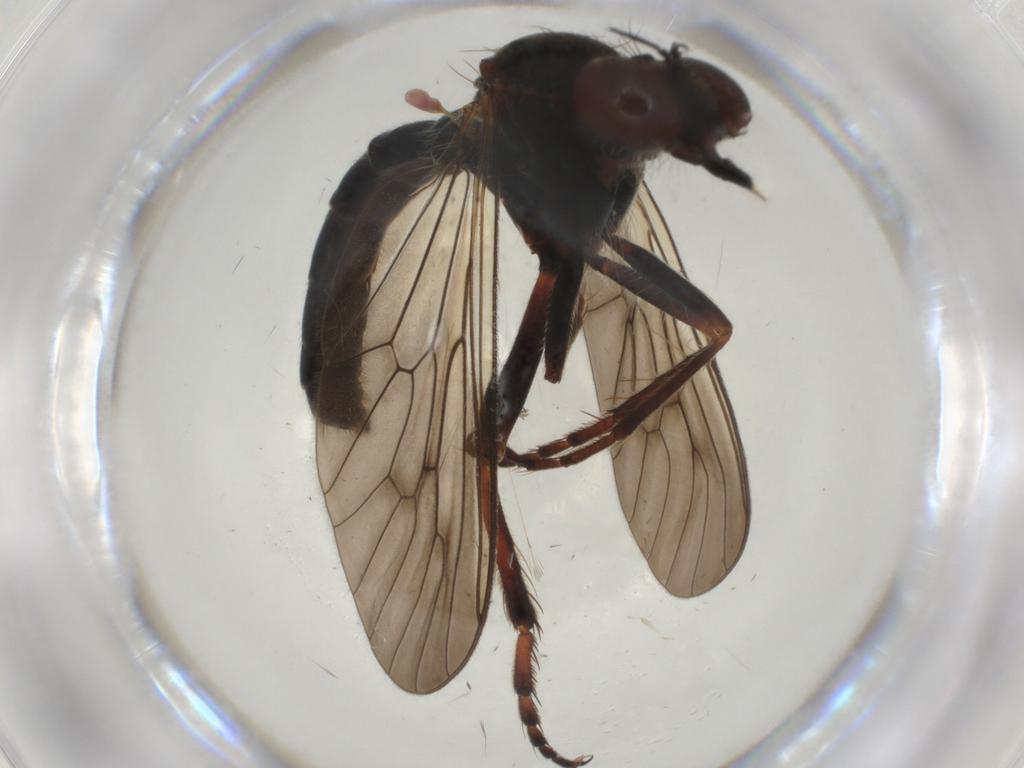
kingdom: Animalia
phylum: Arthropoda
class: Insecta
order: Diptera
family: Asilidae
